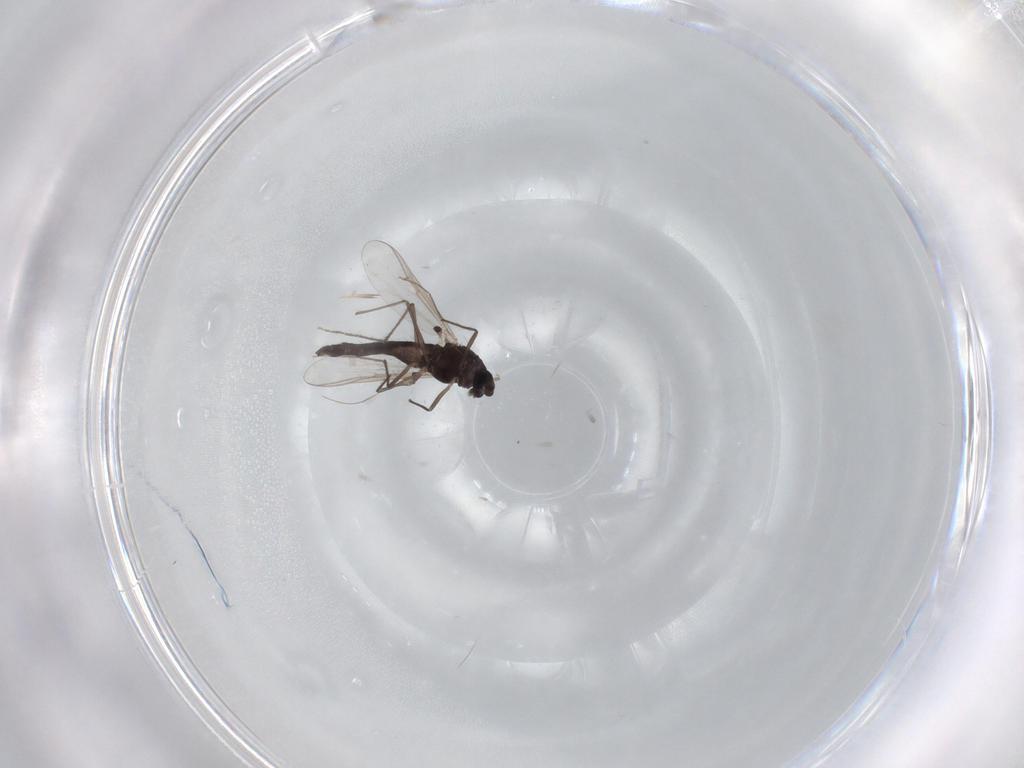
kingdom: Animalia
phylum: Arthropoda
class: Insecta
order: Diptera
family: Chironomidae
